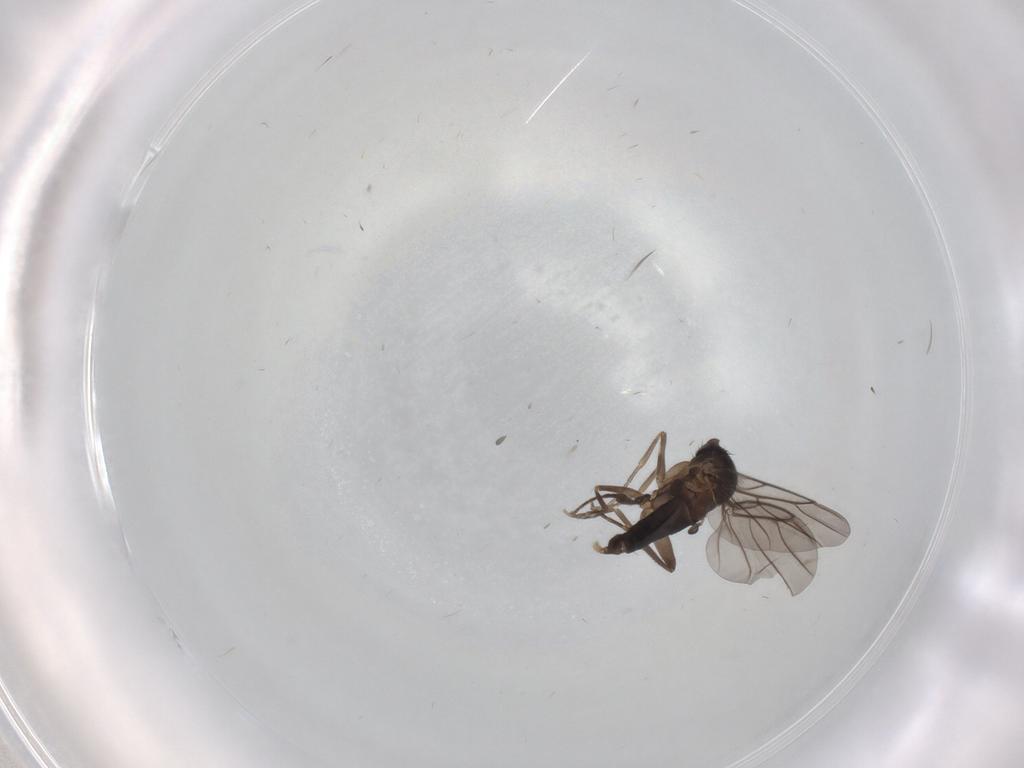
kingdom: Animalia
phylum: Arthropoda
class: Insecta
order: Diptera
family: Phoridae
